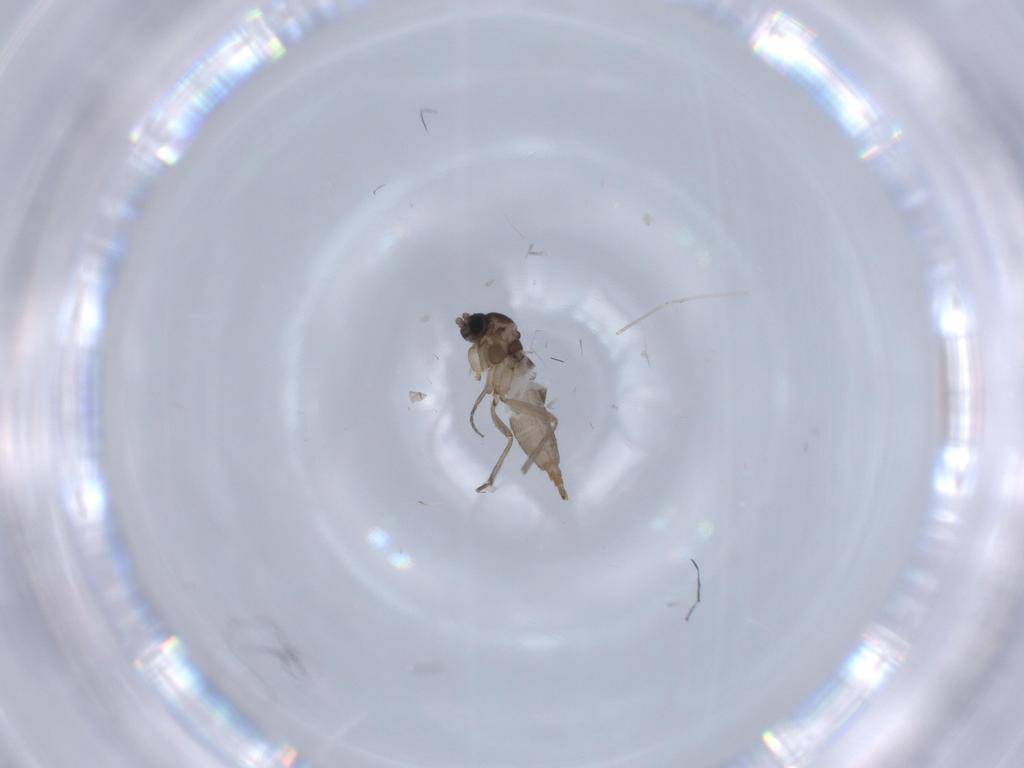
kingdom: Animalia
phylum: Arthropoda
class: Insecta
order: Diptera
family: Sciaridae
